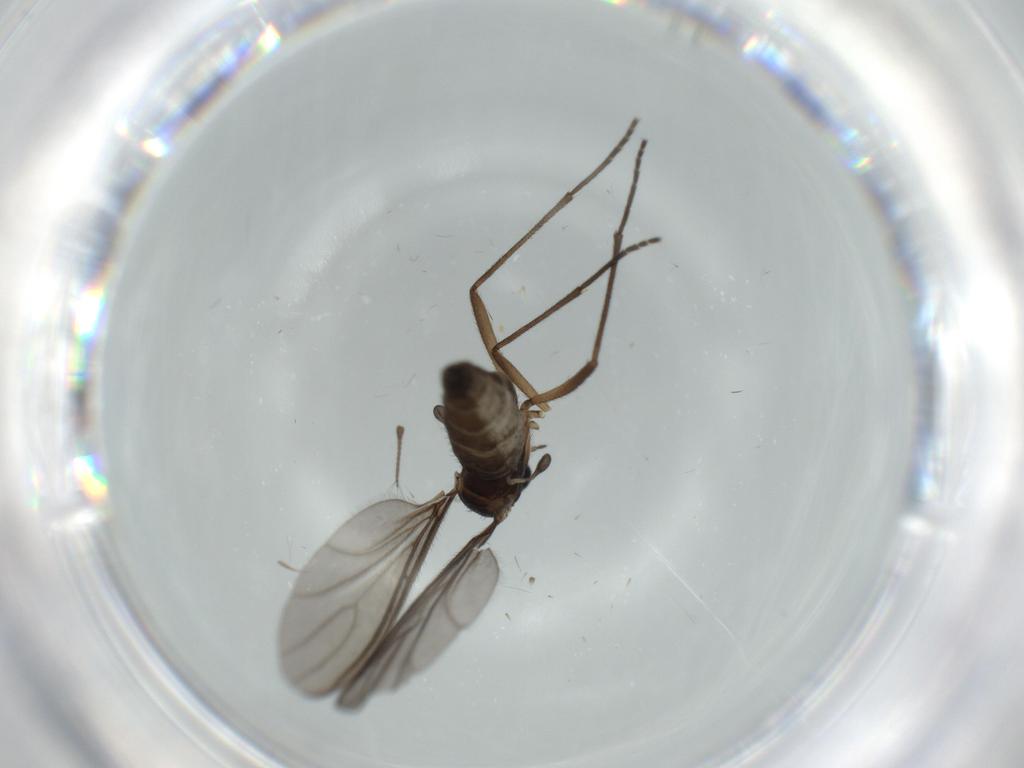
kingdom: Animalia
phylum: Arthropoda
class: Insecta
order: Diptera
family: Sciaridae
